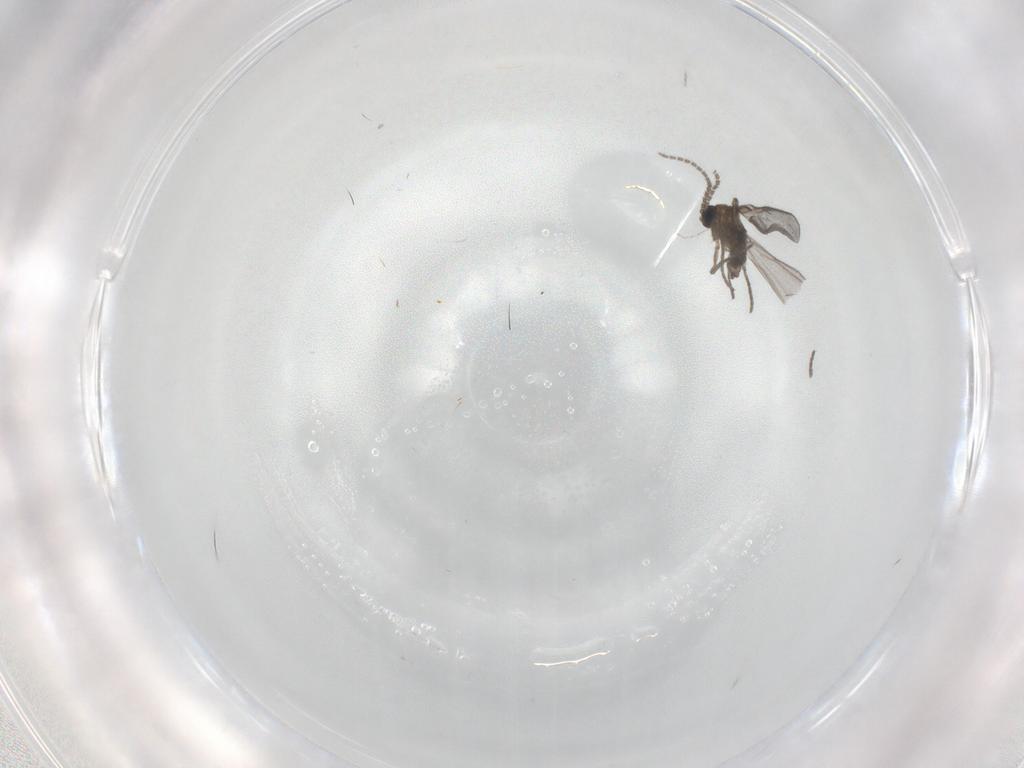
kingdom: Animalia
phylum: Arthropoda
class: Insecta
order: Diptera
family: Sciaridae
